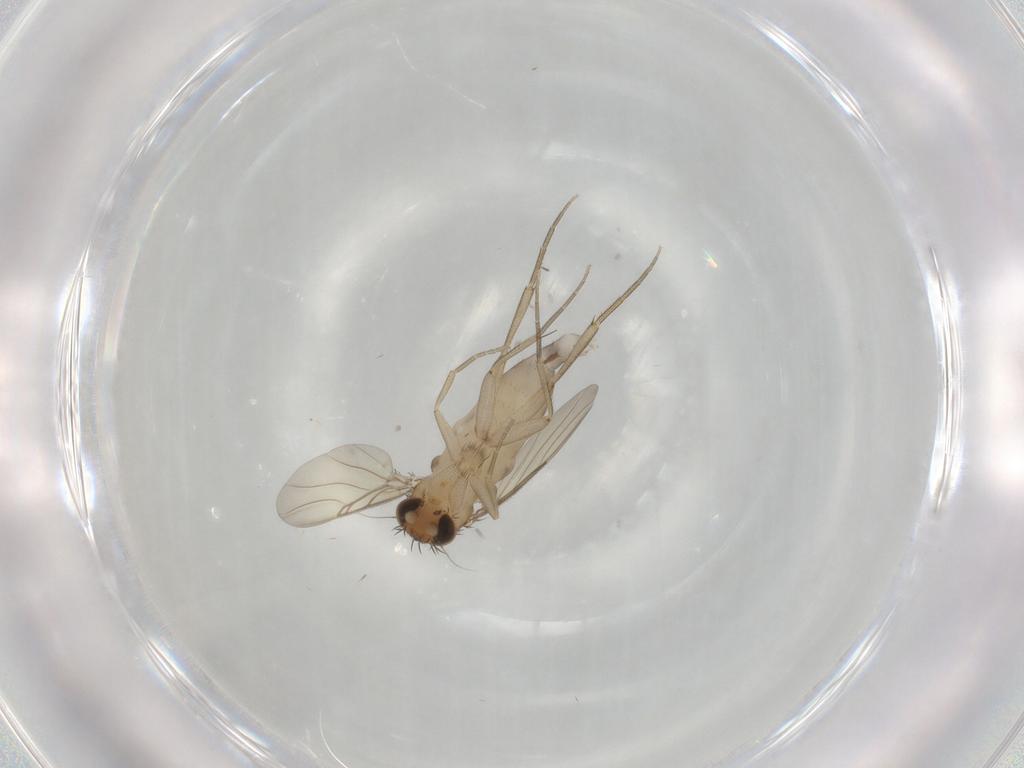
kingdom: Animalia
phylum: Arthropoda
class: Insecta
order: Diptera
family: Phoridae
